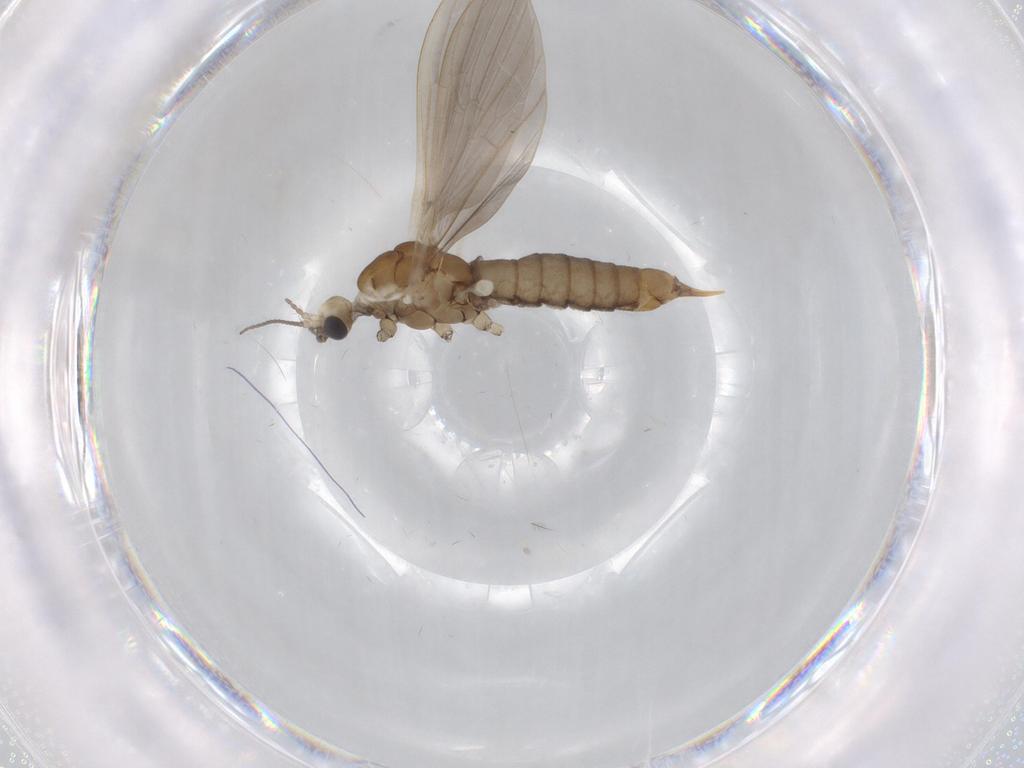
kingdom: Animalia
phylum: Arthropoda
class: Insecta
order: Diptera
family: Limoniidae
